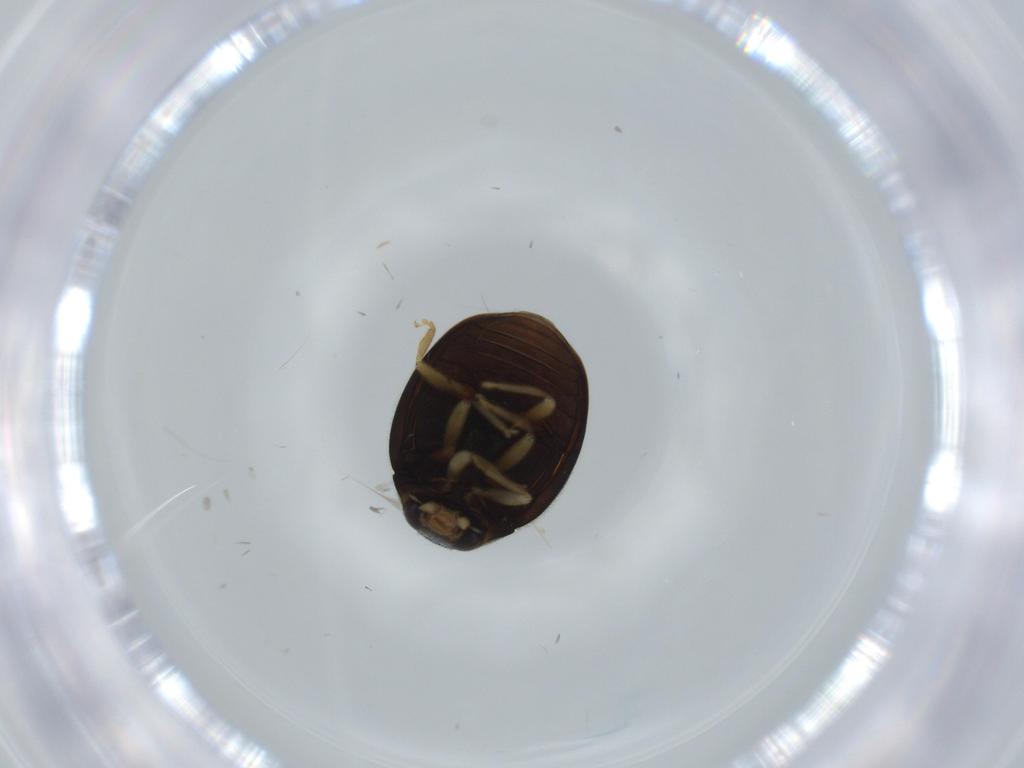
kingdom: Animalia
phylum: Arthropoda
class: Insecta
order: Coleoptera
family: Coccinellidae
